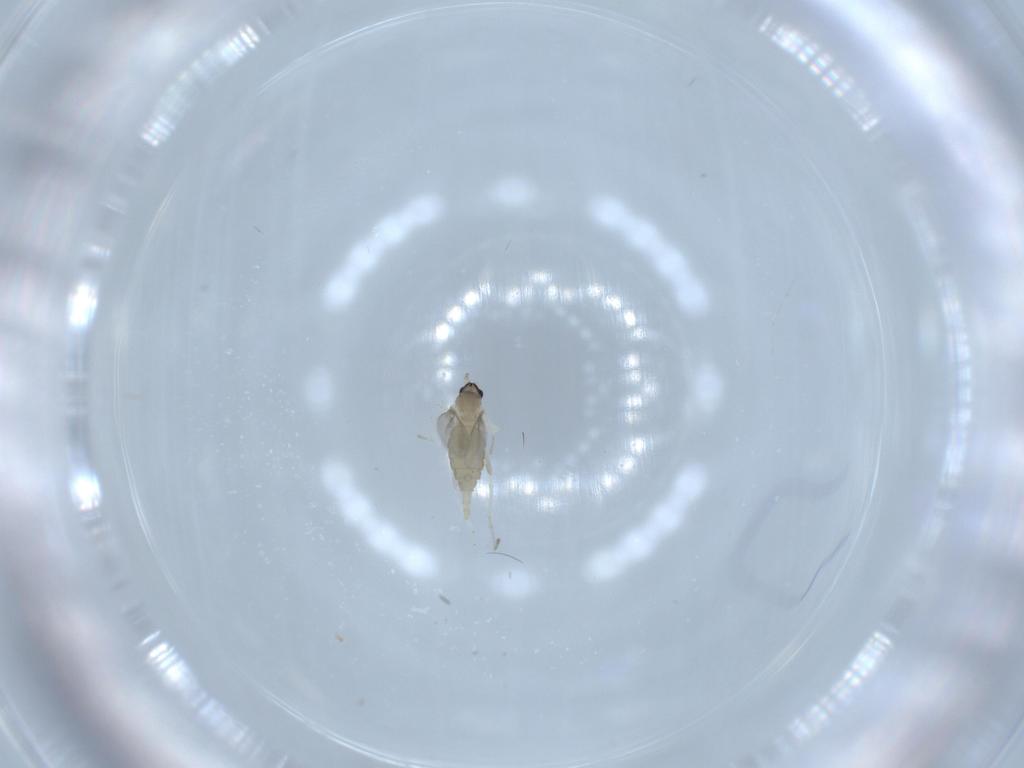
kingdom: Animalia
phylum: Arthropoda
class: Insecta
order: Diptera
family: Cecidomyiidae
